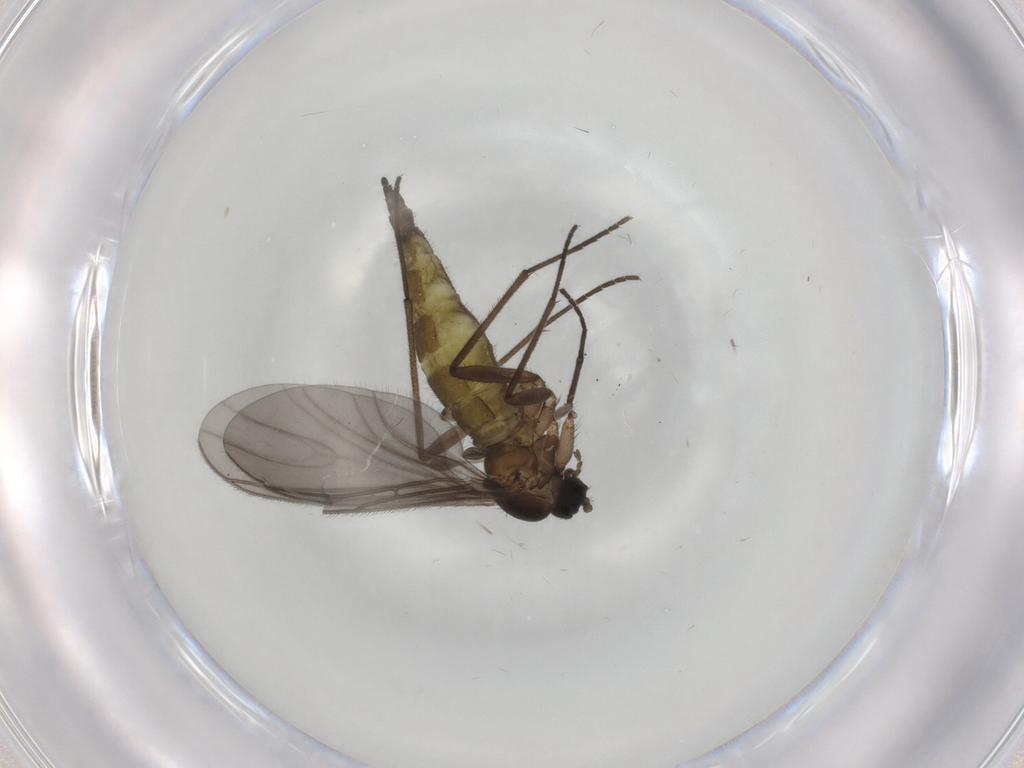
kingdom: Animalia
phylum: Arthropoda
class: Insecta
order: Diptera
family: Sciaridae
